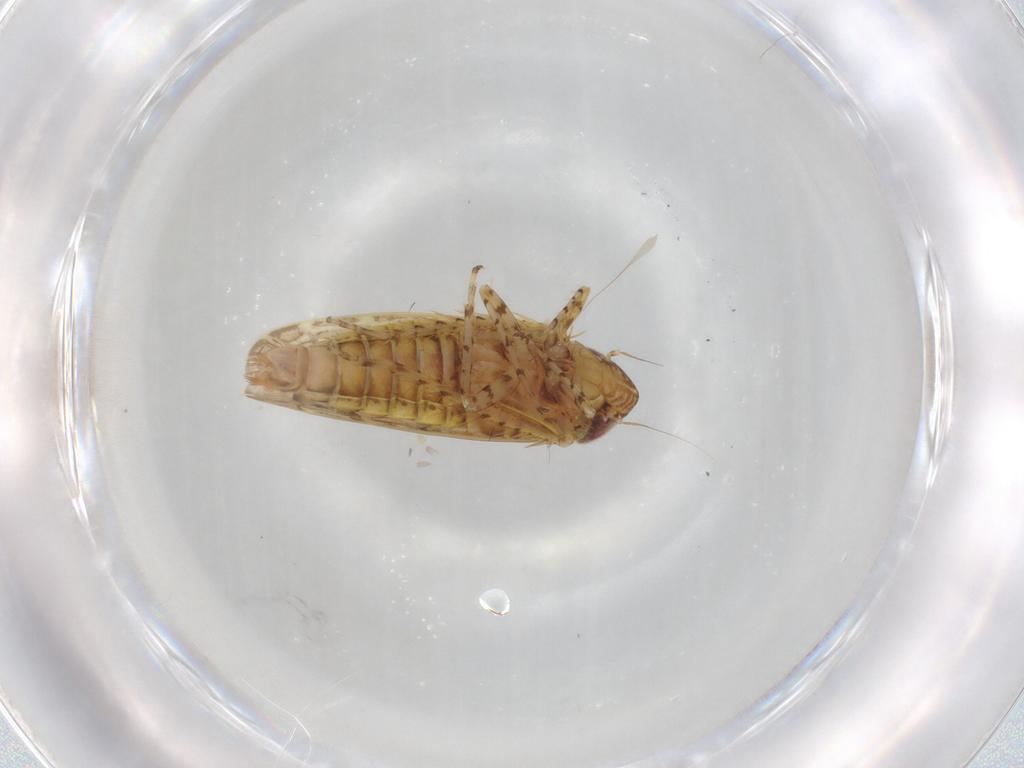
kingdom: Animalia
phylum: Arthropoda
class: Insecta
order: Hemiptera
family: Cicadellidae
